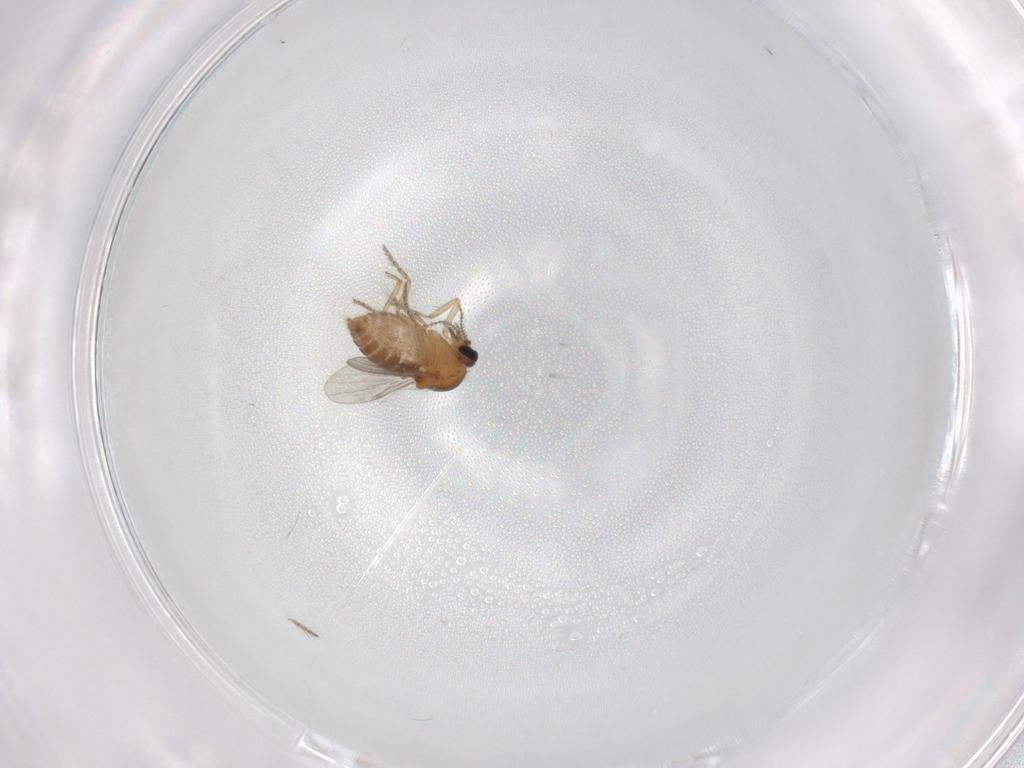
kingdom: Animalia
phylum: Arthropoda
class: Insecta
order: Diptera
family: Ceratopogonidae
